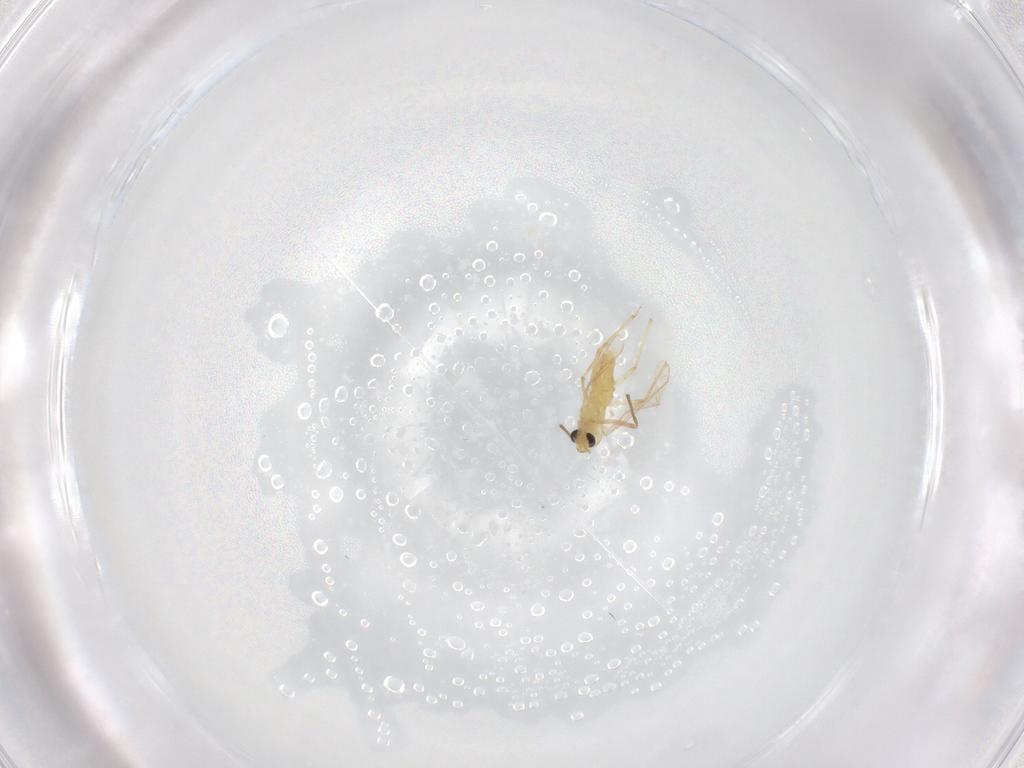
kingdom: Animalia
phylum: Arthropoda
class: Insecta
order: Diptera
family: Chironomidae
